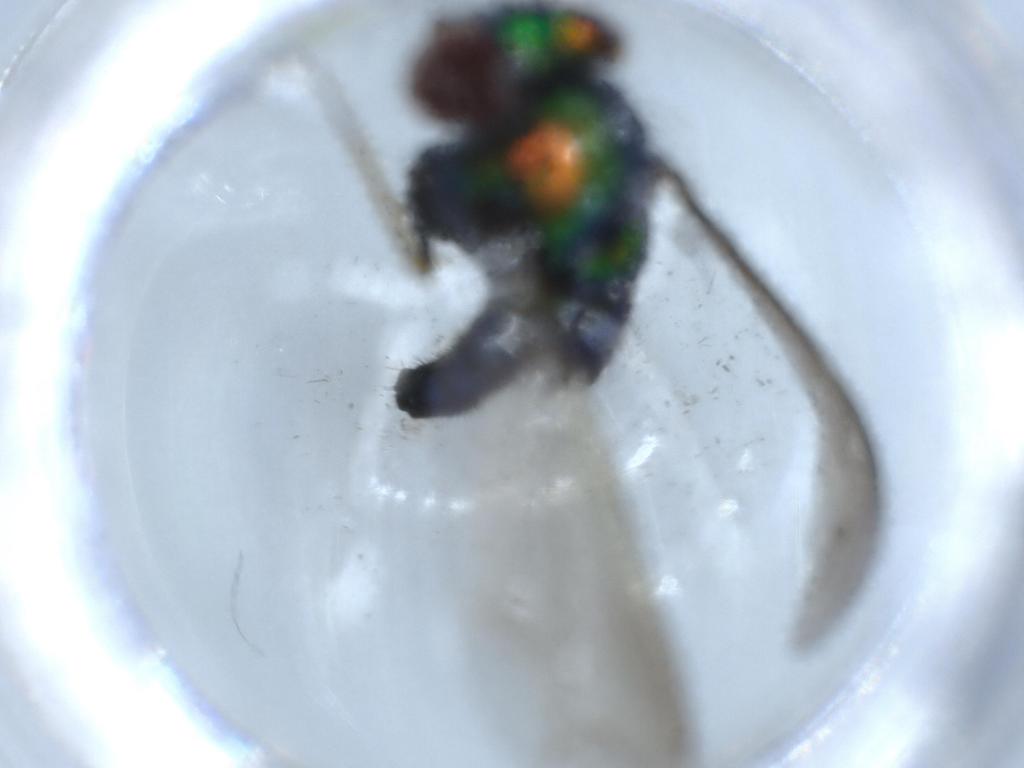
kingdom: Animalia
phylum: Arthropoda
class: Insecta
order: Diptera
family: Dolichopodidae
